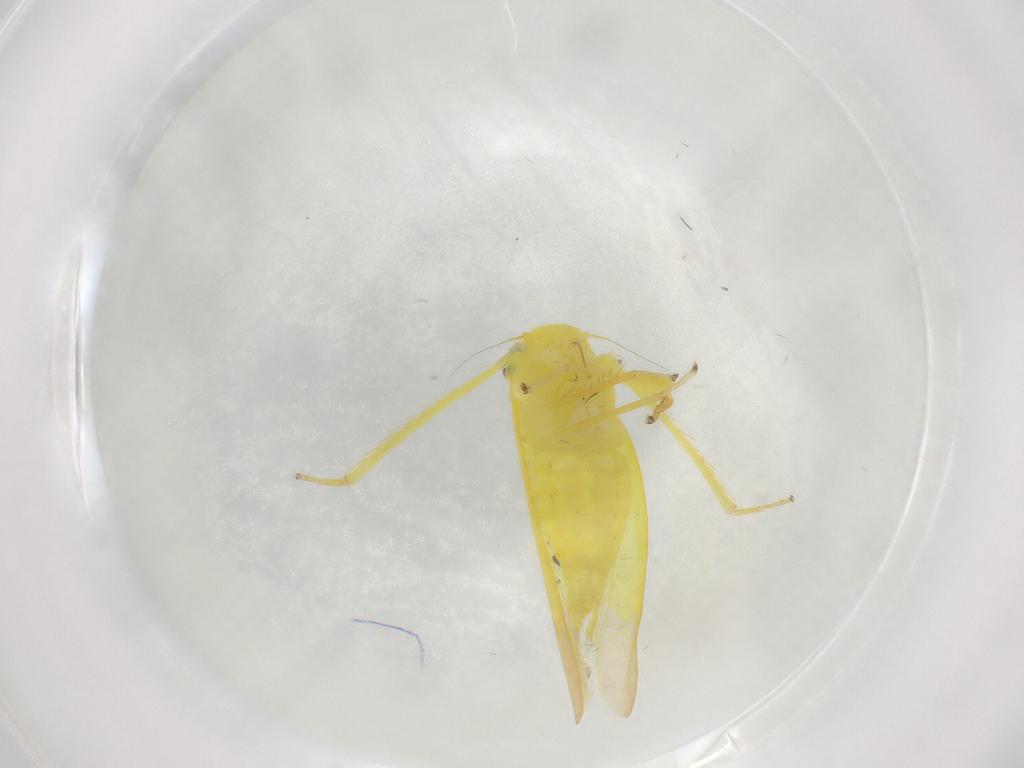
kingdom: Animalia
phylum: Arthropoda
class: Insecta
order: Hemiptera
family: Cicadellidae
